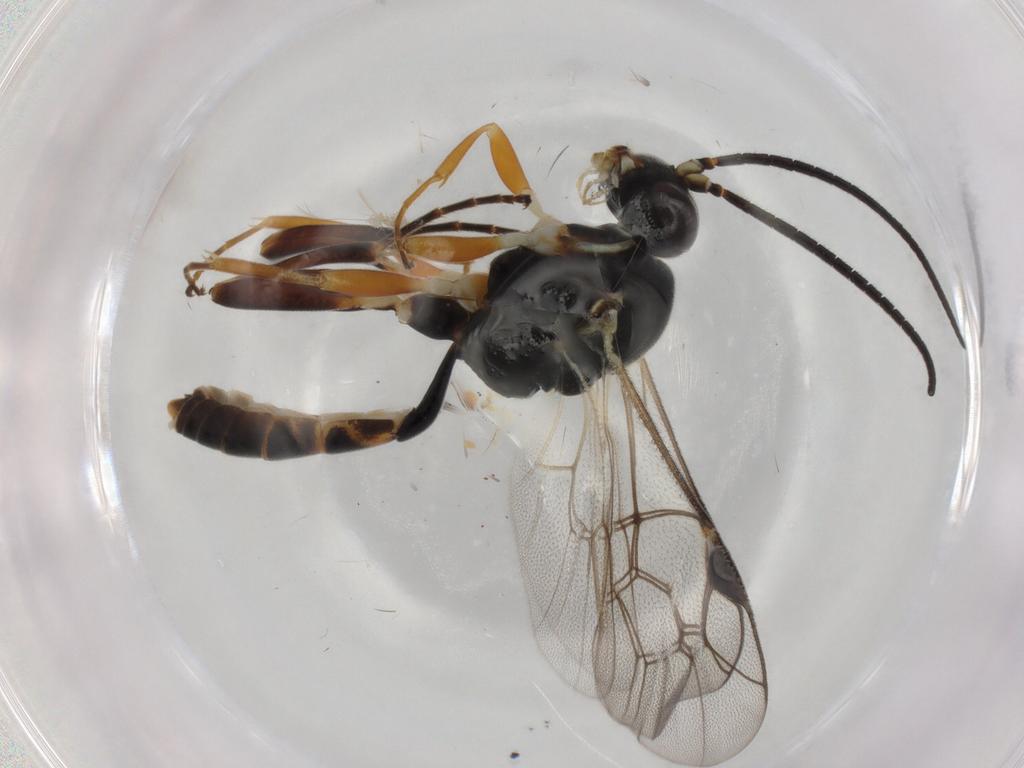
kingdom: Animalia
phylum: Arthropoda
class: Insecta
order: Diptera
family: Chironomidae
